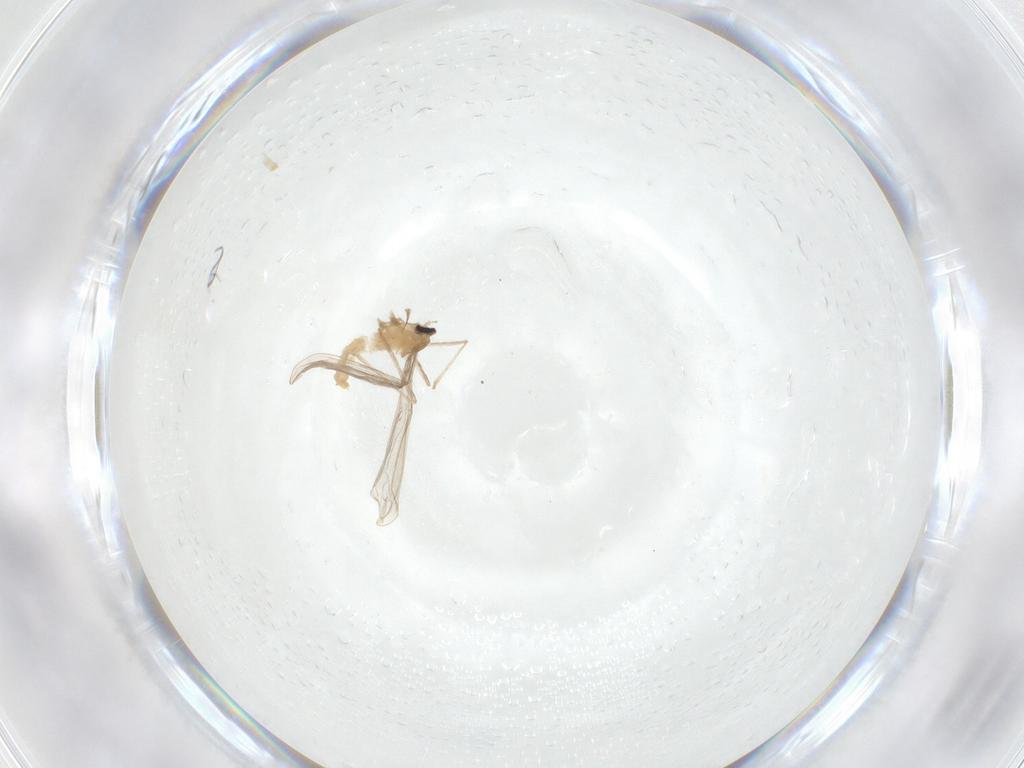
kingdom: Animalia
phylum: Arthropoda
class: Insecta
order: Diptera
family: Cecidomyiidae
